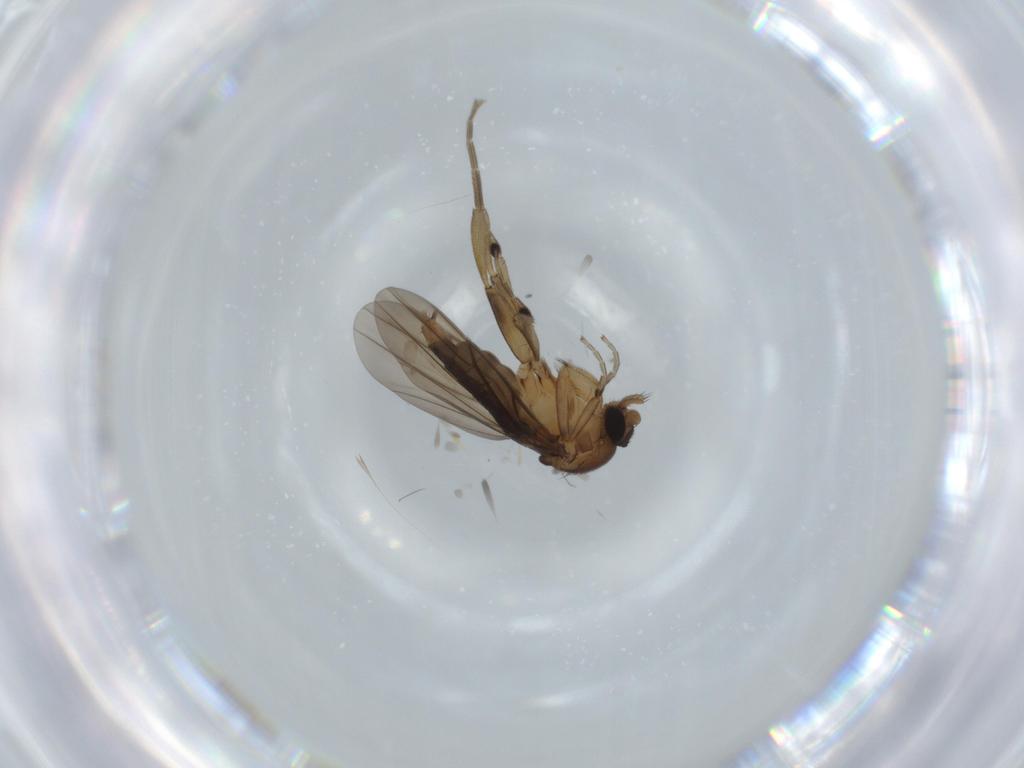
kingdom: Animalia
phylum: Arthropoda
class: Insecta
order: Diptera
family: Phoridae
